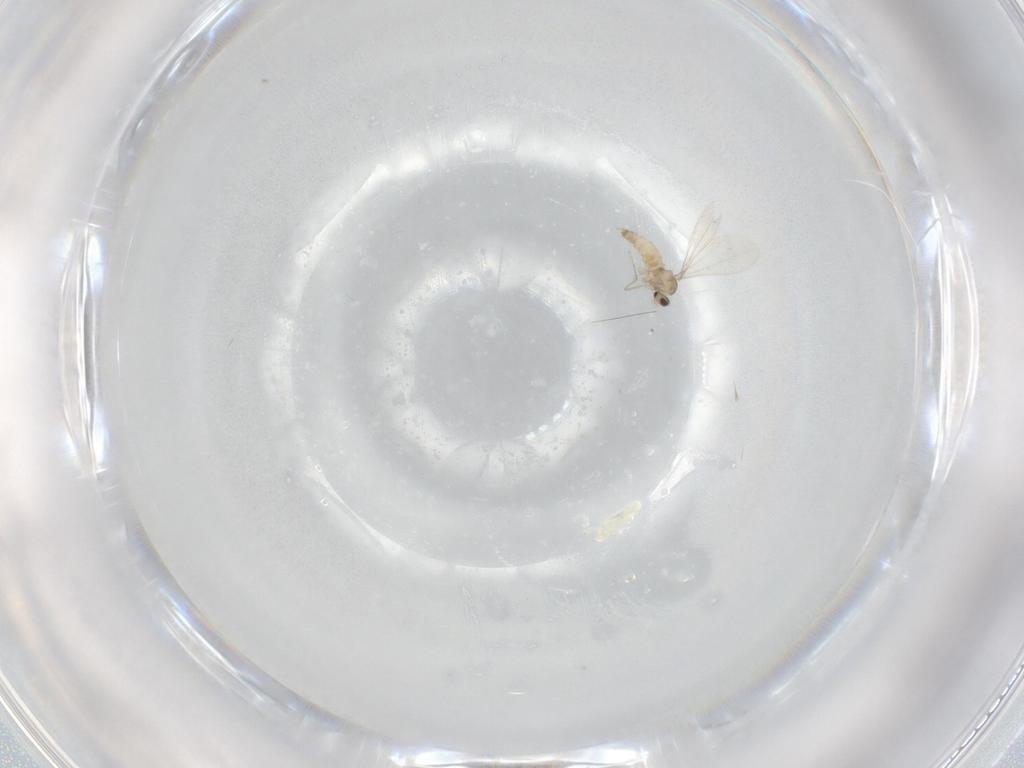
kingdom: Animalia
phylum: Arthropoda
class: Insecta
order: Diptera
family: Cecidomyiidae
